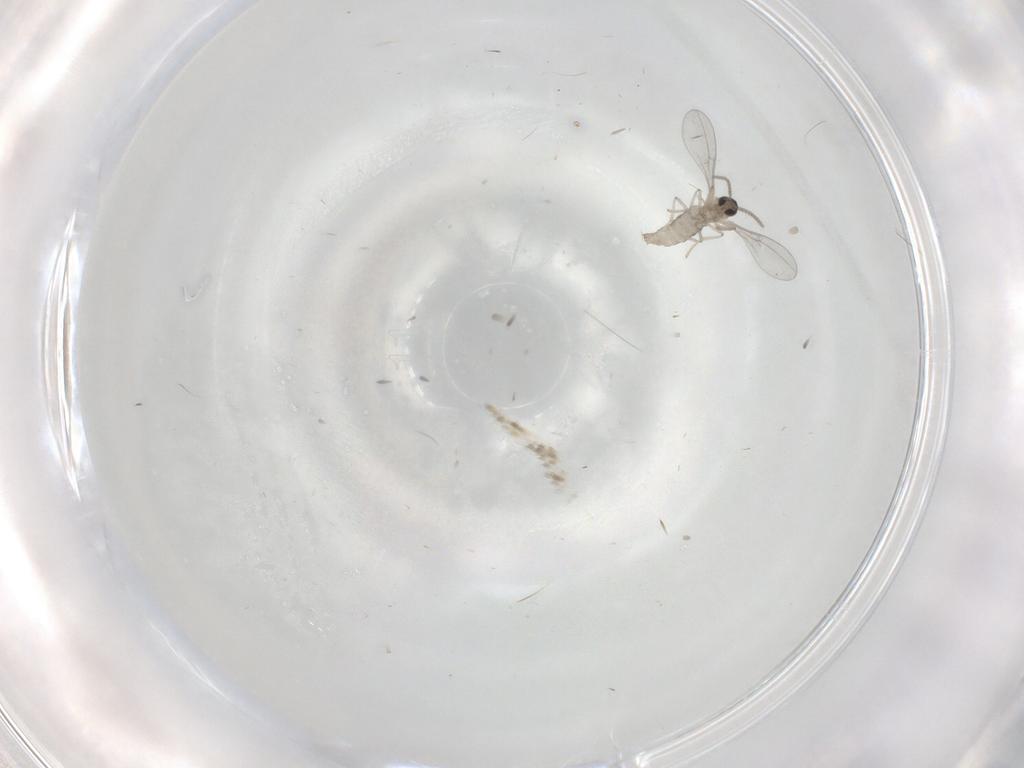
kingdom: Animalia
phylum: Arthropoda
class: Insecta
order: Diptera
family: Cecidomyiidae
